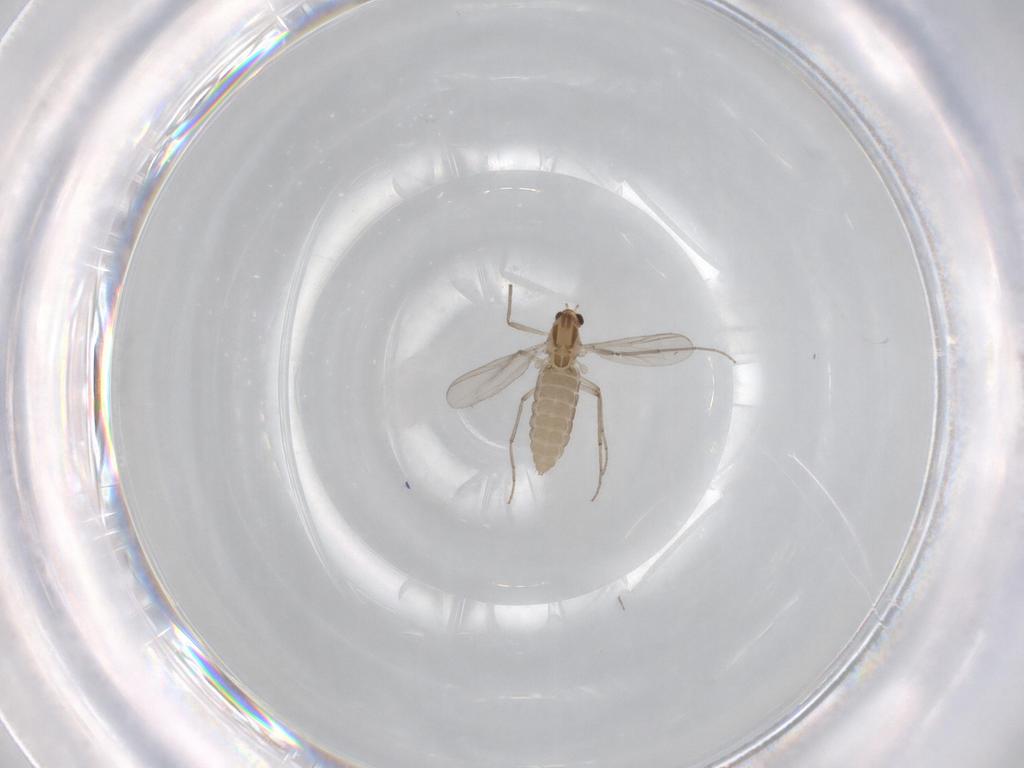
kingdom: Animalia
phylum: Arthropoda
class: Insecta
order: Diptera
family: Chironomidae
